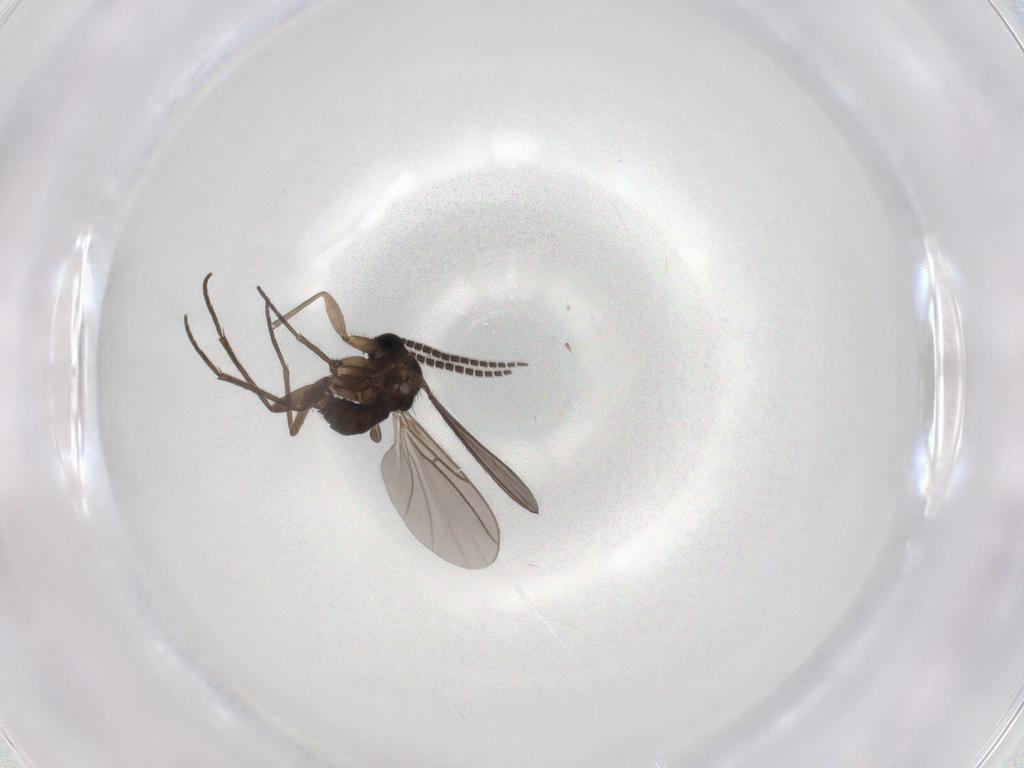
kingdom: Animalia
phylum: Arthropoda
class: Insecta
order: Diptera
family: Sciaridae
